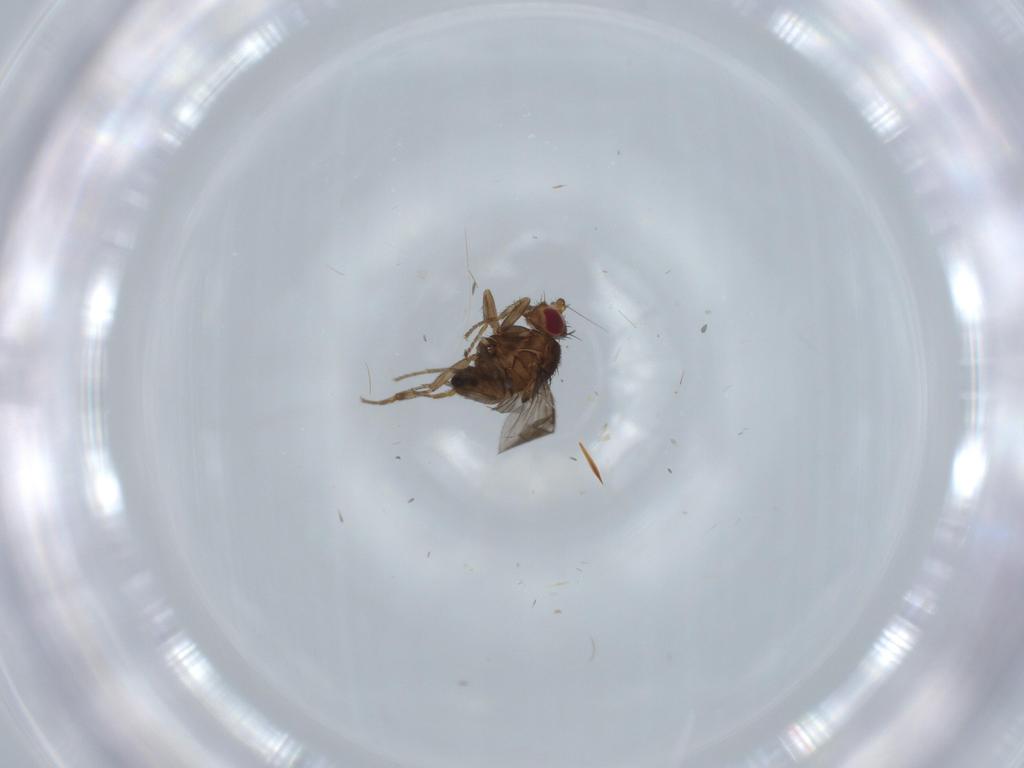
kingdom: Animalia
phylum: Arthropoda
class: Insecta
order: Diptera
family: Sphaeroceridae
